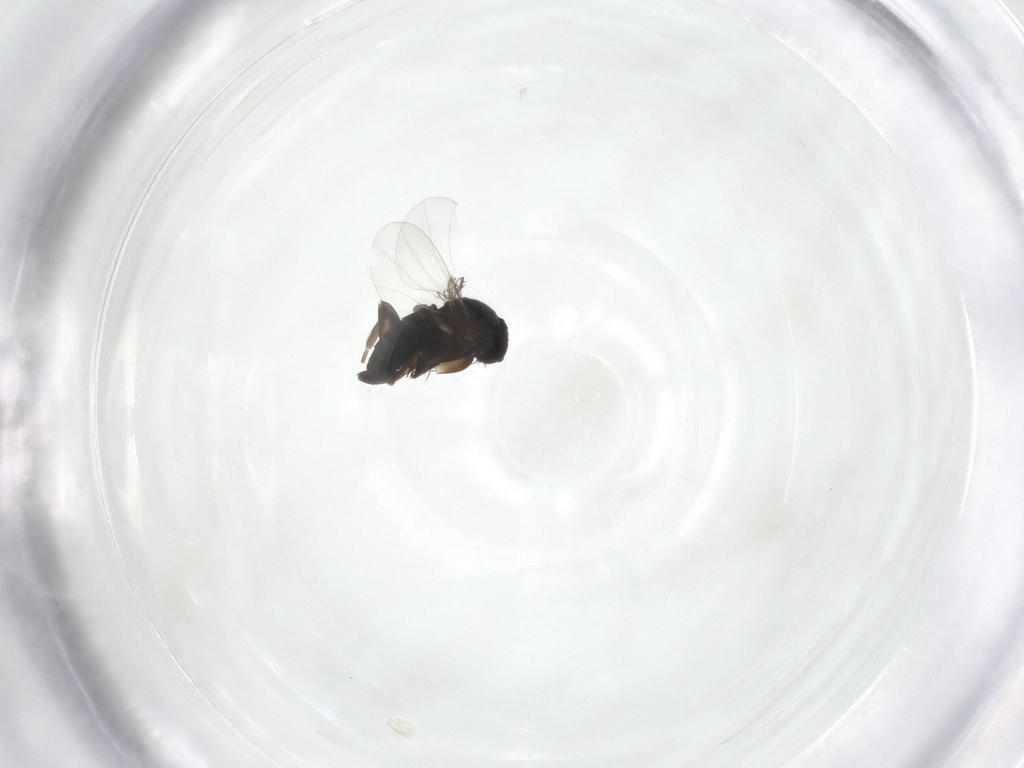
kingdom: Animalia
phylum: Arthropoda
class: Insecta
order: Diptera
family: Phoridae
